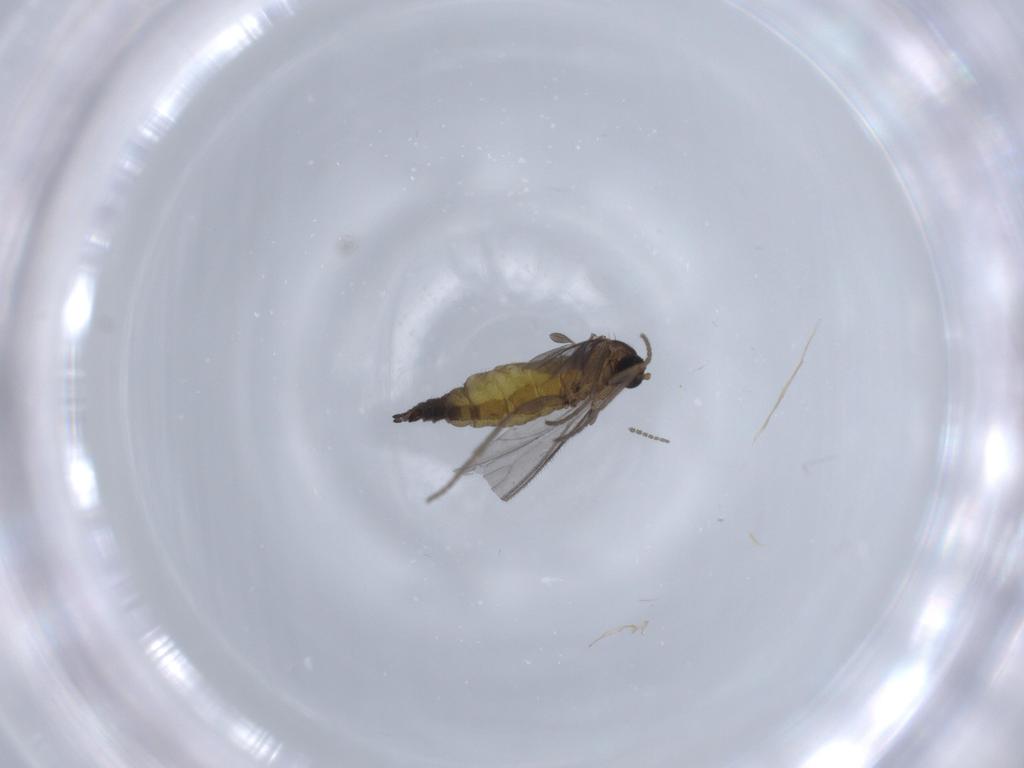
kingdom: Animalia
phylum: Arthropoda
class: Insecta
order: Diptera
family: Sciaridae
